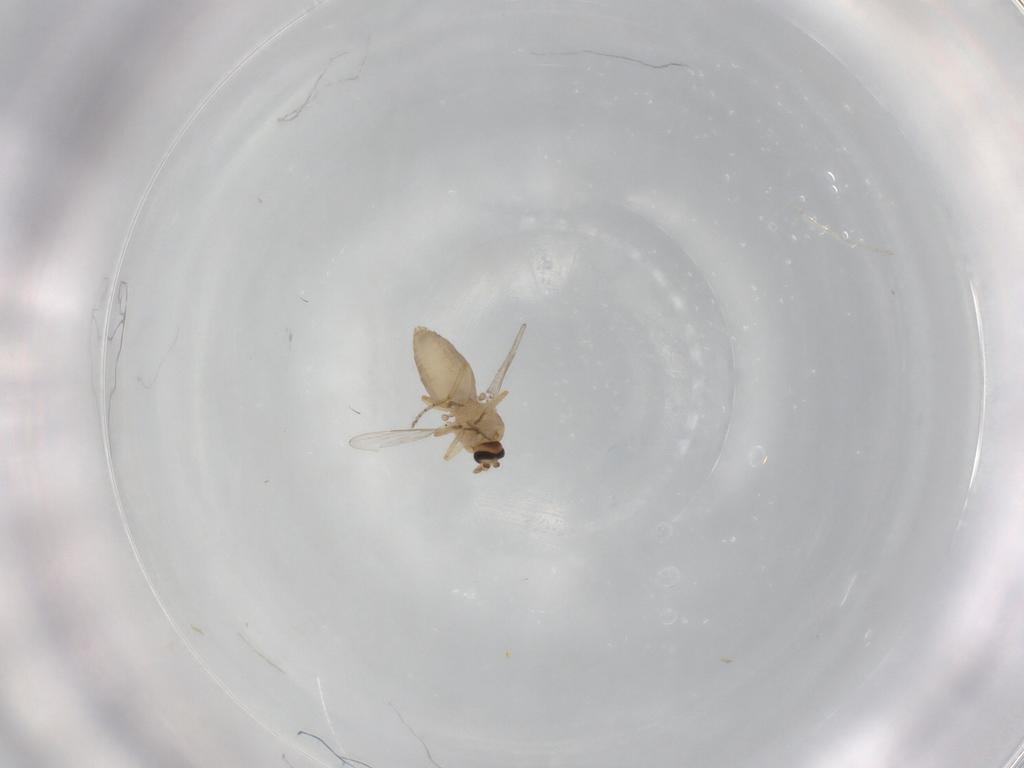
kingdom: Animalia
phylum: Arthropoda
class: Insecta
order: Diptera
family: Ceratopogonidae
